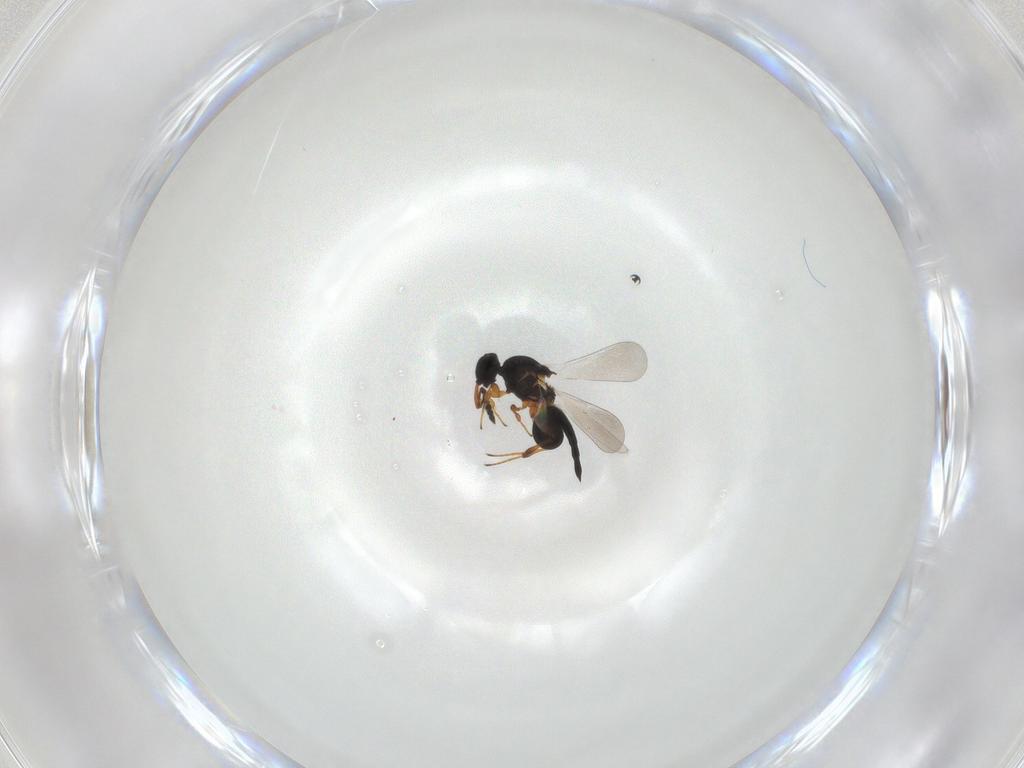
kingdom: Animalia
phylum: Arthropoda
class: Insecta
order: Hymenoptera
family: Platygastridae
